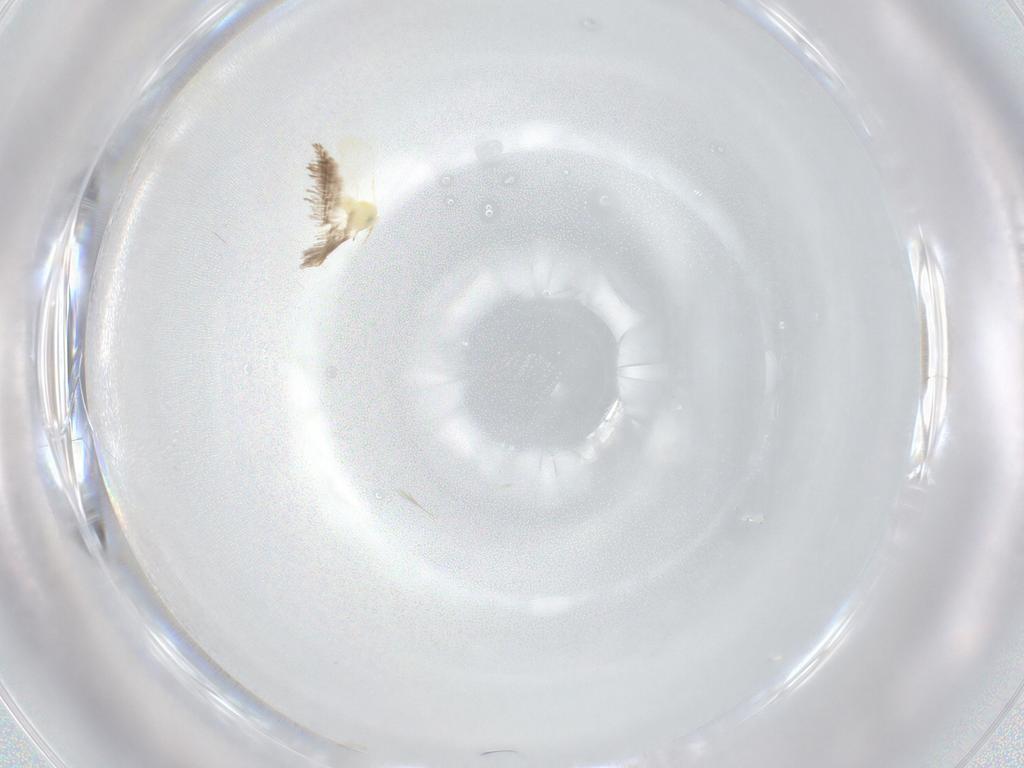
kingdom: Animalia
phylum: Arthropoda
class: Insecta
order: Hemiptera
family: Aleyrodidae
